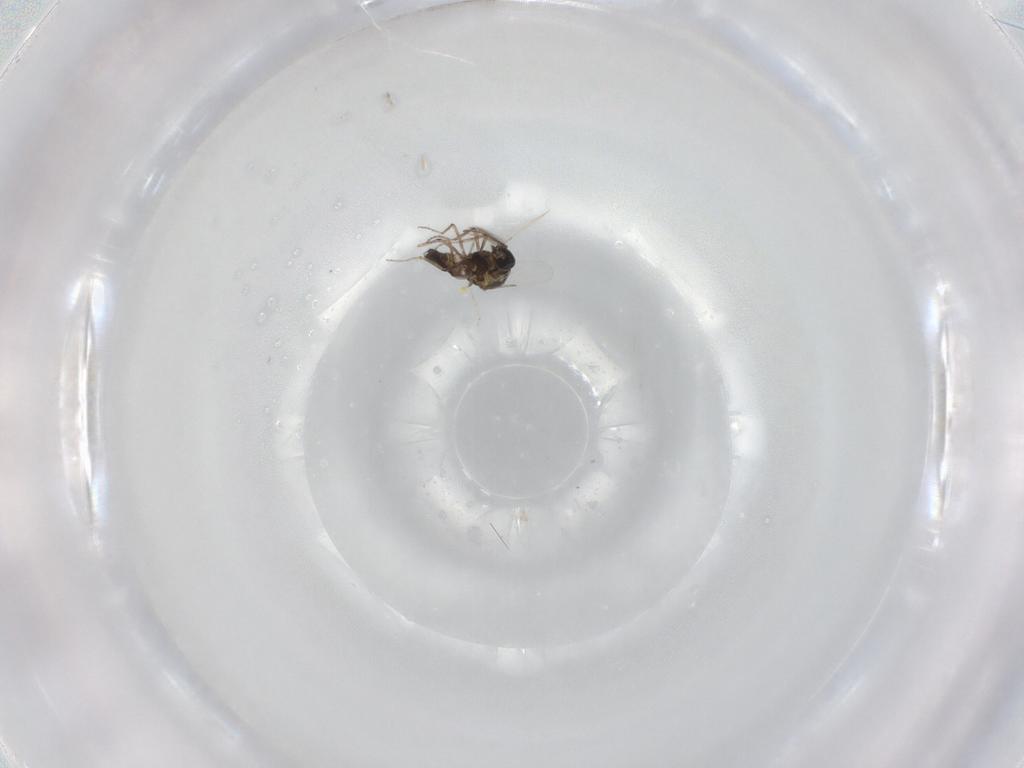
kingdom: Animalia
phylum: Arthropoda
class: Insecta
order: Diptera
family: Ceratopogonidae
